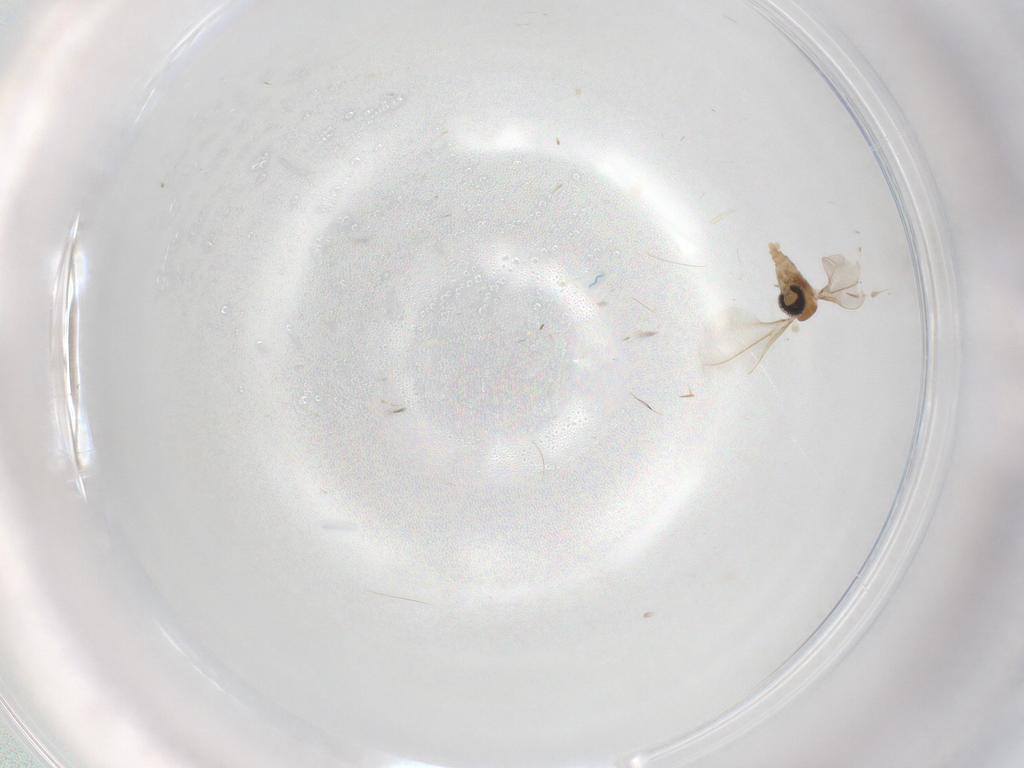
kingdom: Animalia
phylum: Arthropoda
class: Insecta
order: Diptera
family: Cecidomyiidae
